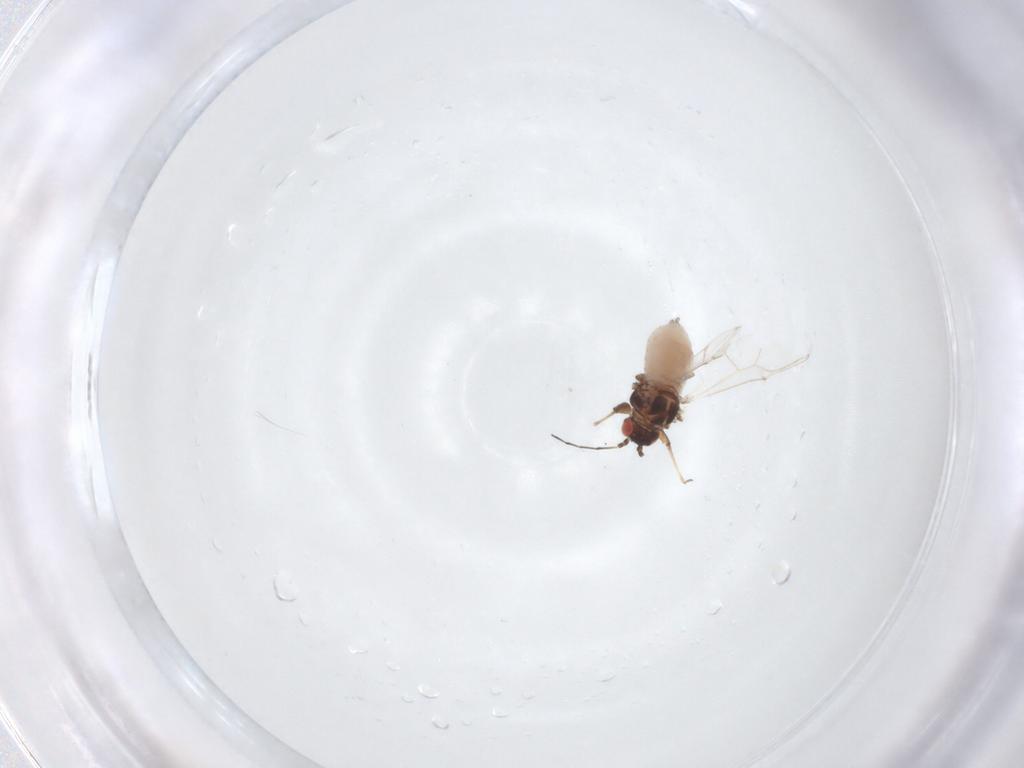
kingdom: Animalia
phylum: Arthropoda
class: Insecta
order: Hemiptera
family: Aphididae
